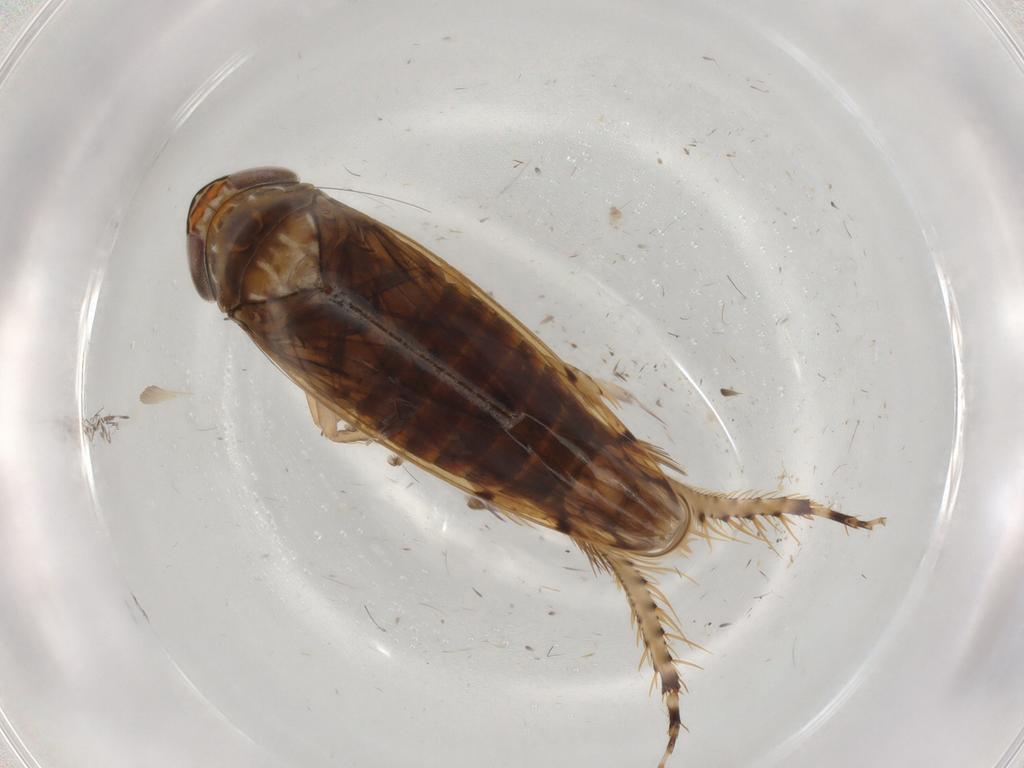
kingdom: Animalia
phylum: Arthropoda
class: Insecta
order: Hemiptera
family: Cicadellidae
